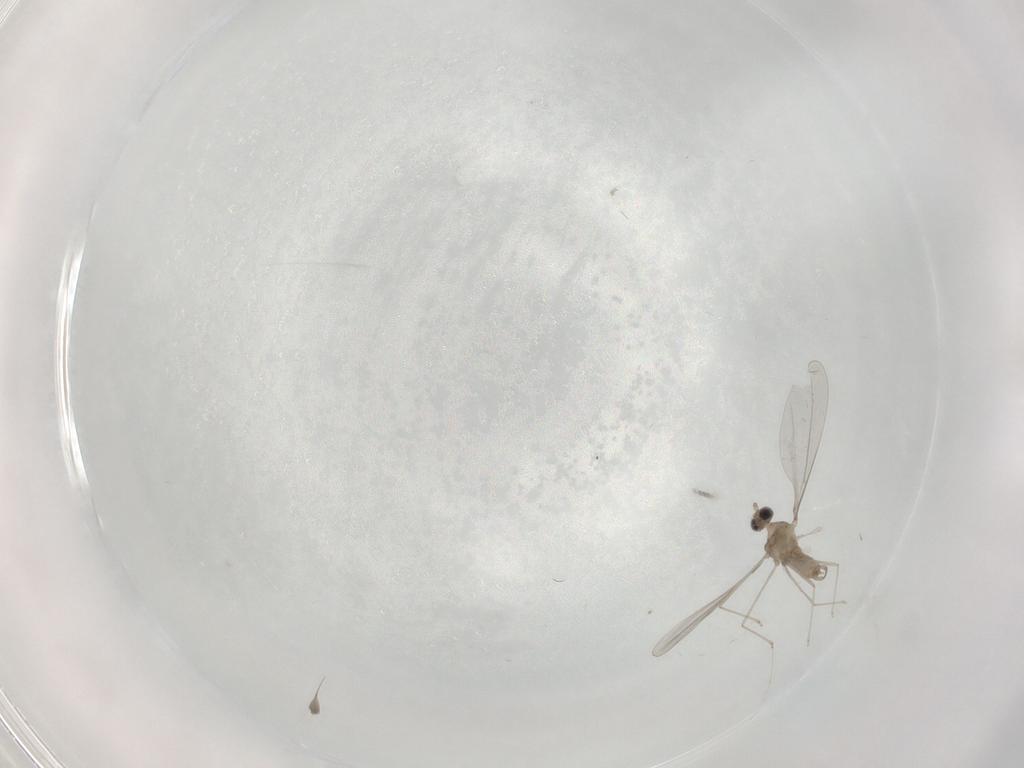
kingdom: Animalia
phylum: Arthropoda
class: Insecta
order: Diptera
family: Cecidomyiidae
